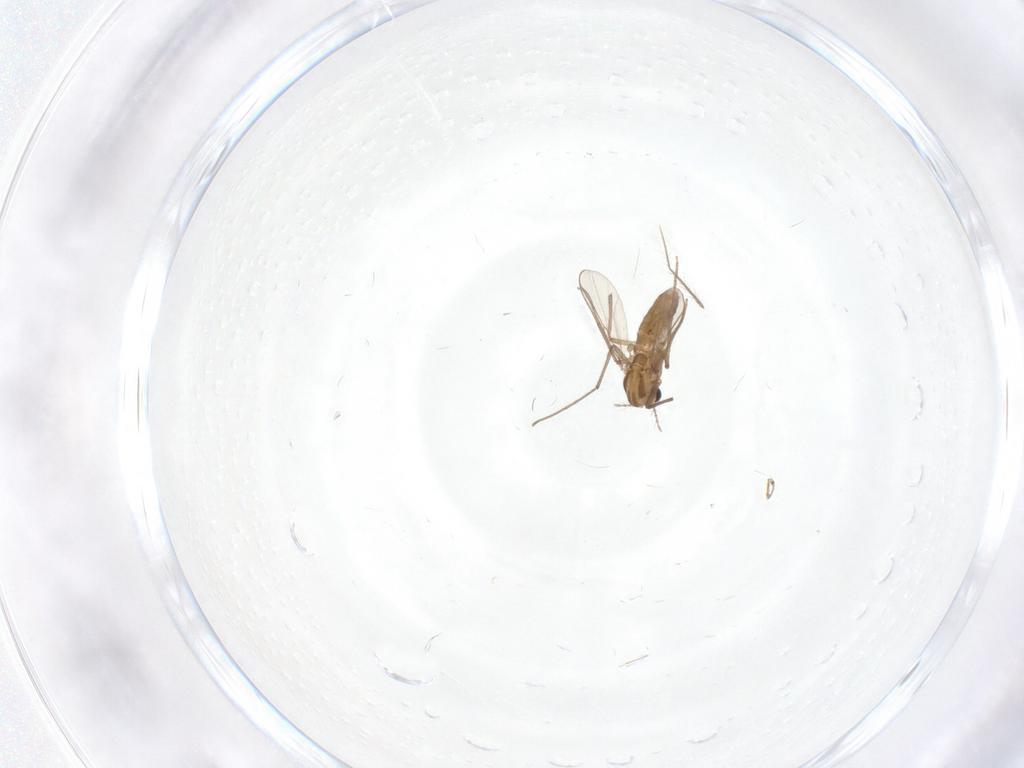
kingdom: Animalia
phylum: Arthropoda
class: Insecta
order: Diptera
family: Chironomidae
